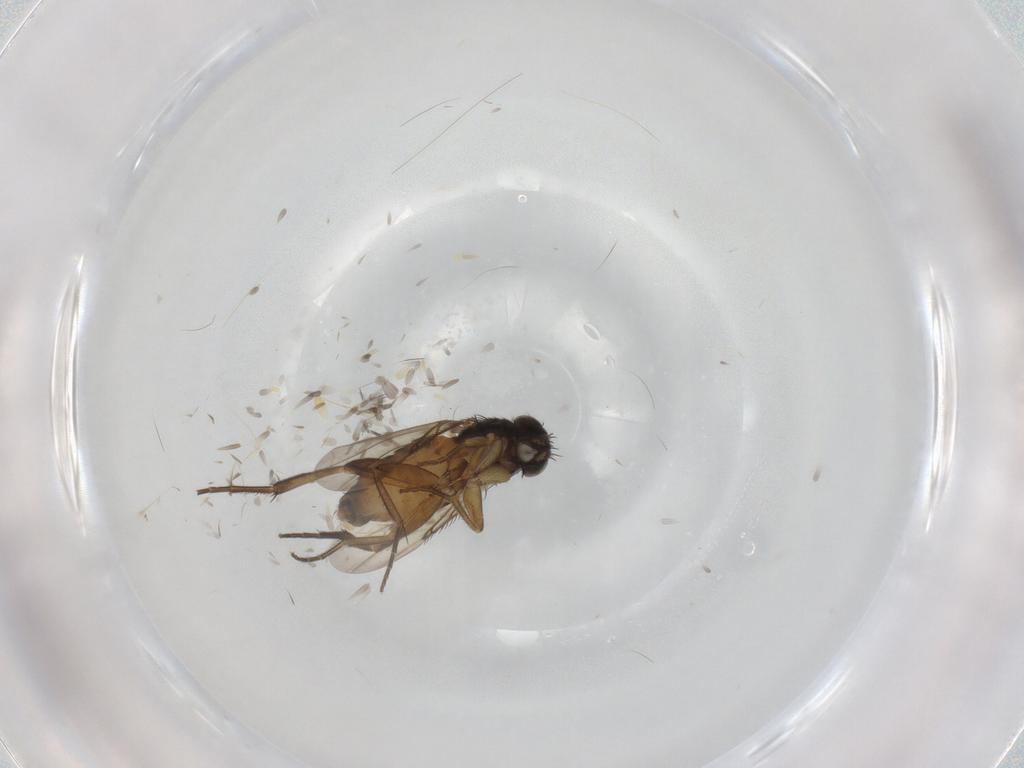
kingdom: Animalia
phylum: Arthropoda
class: Insecta
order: Diptera
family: Phoridae
